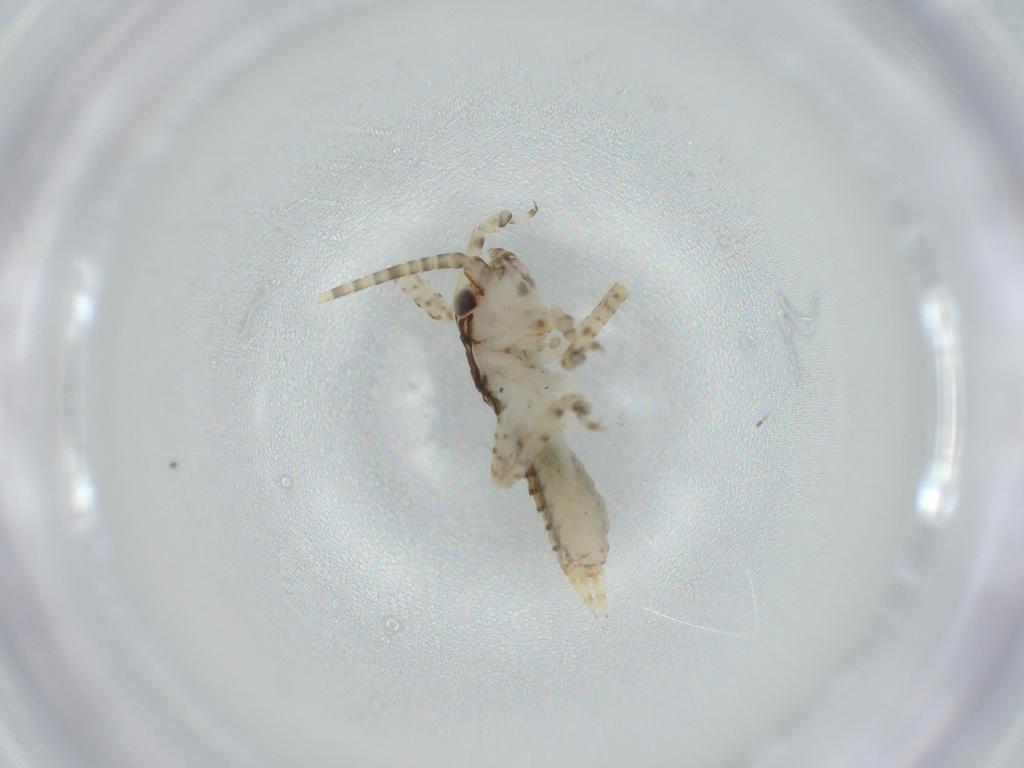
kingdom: Animalia
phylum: Arthropoda
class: Insecta
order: Orthoptera
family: Gryllidae
